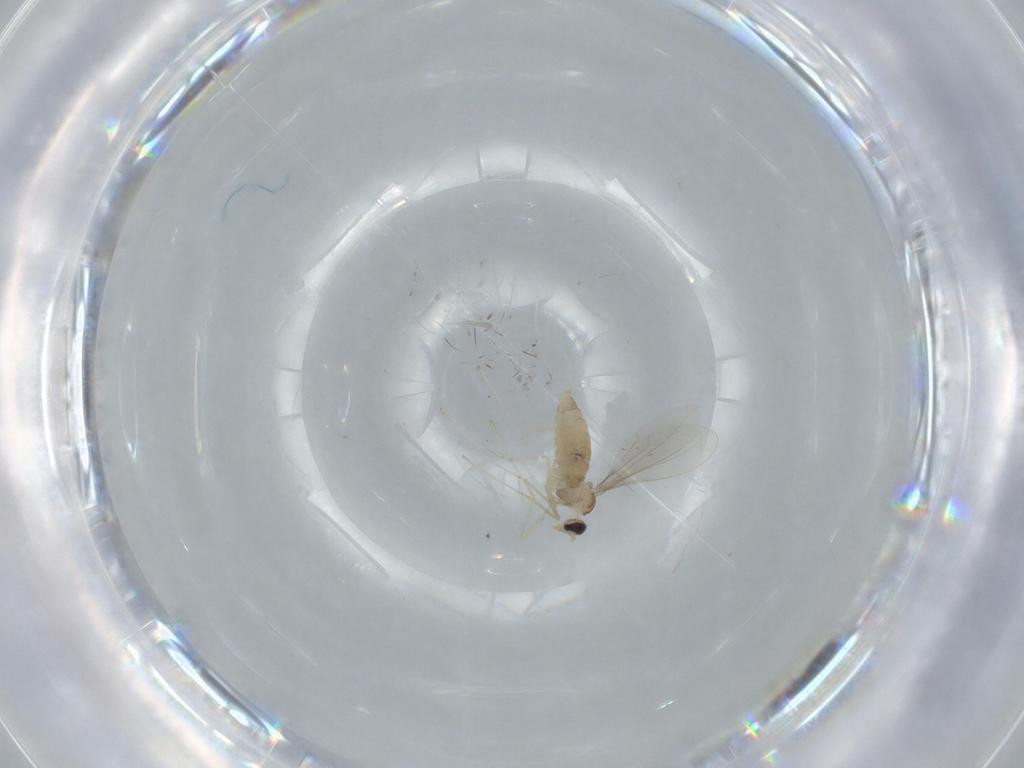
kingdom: Animalia
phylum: Arthropoda
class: Insecta
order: Diptera
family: Cecidomyiidae
